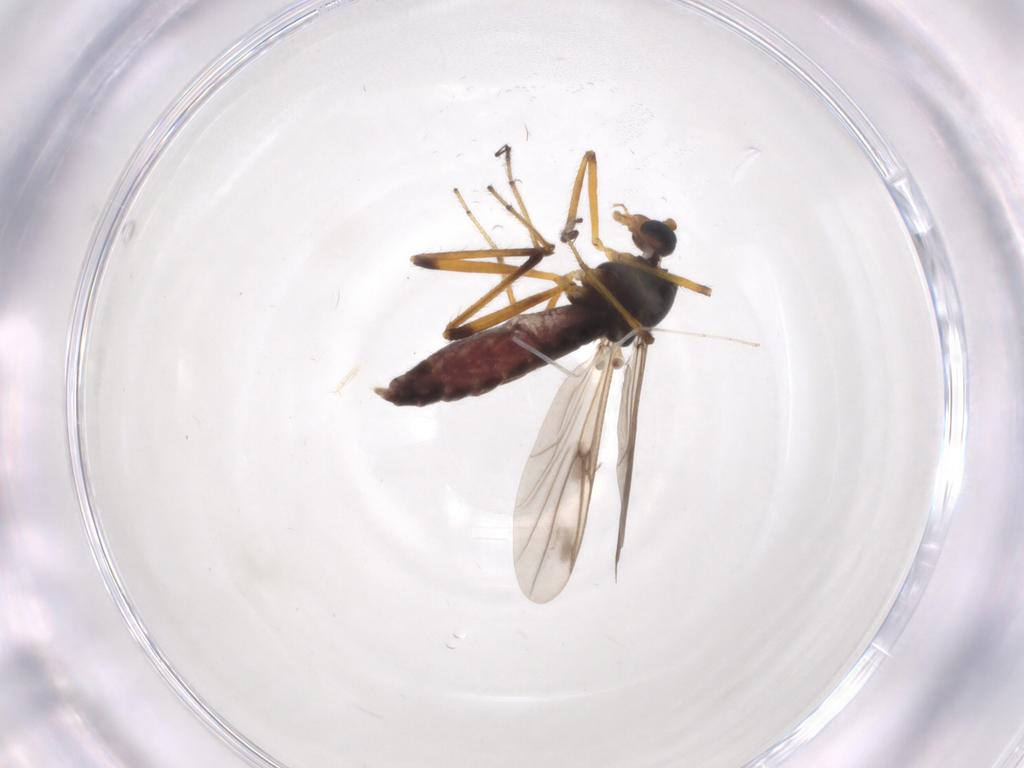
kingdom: Animalia
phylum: Arthropoda
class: Insecta
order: Diptera
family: Cecidomyiidae
